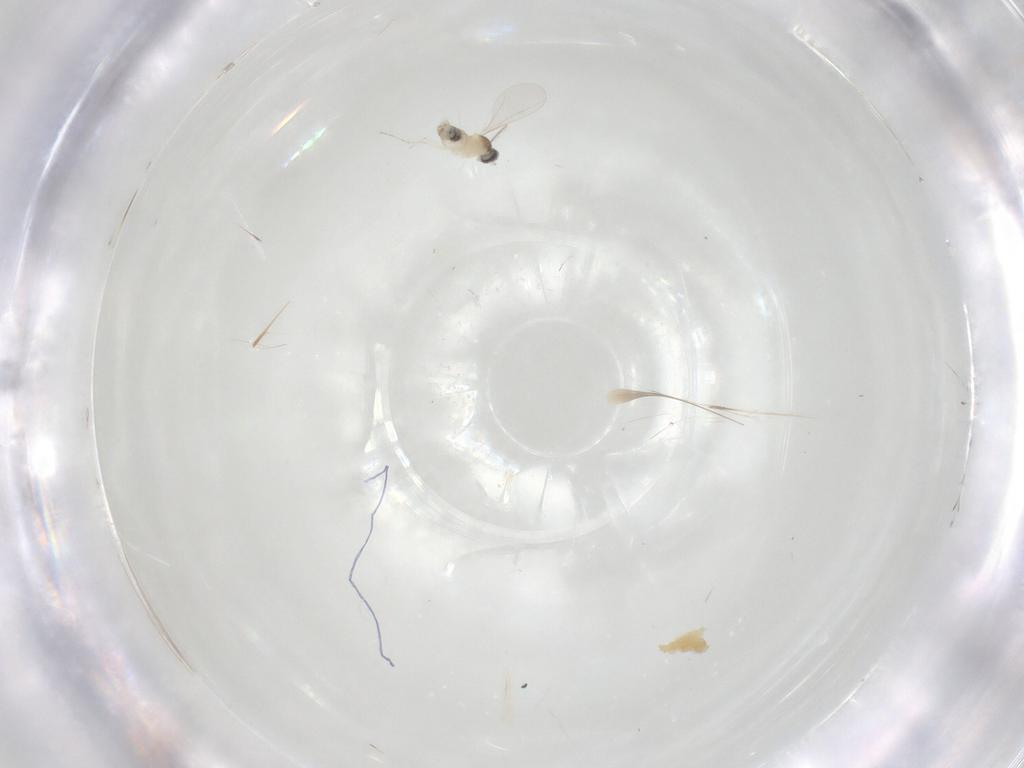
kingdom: Animalia
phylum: Arthropoda
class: Insecta
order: Diptera
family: Cecidomyiidae
